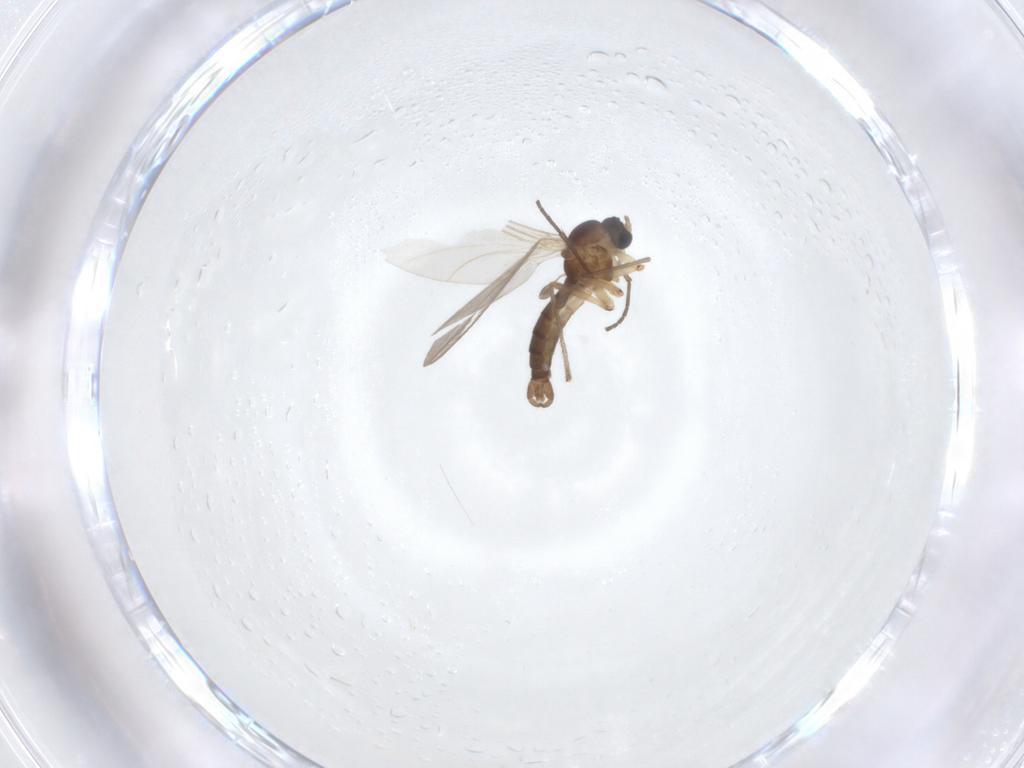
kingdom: Animalia
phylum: Arthropoda
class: Insecta
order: Diptera
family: Sciaridae
